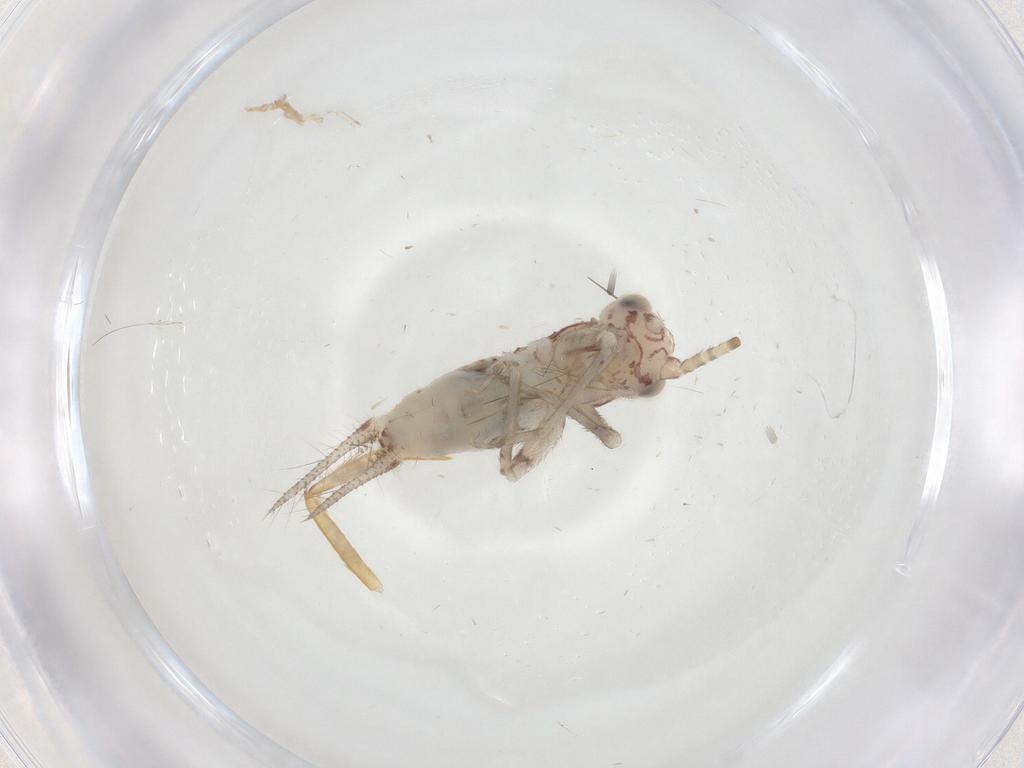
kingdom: Animalia
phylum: Arthropoda
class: Insecta
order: Orthoptera
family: Trigonidiidae
